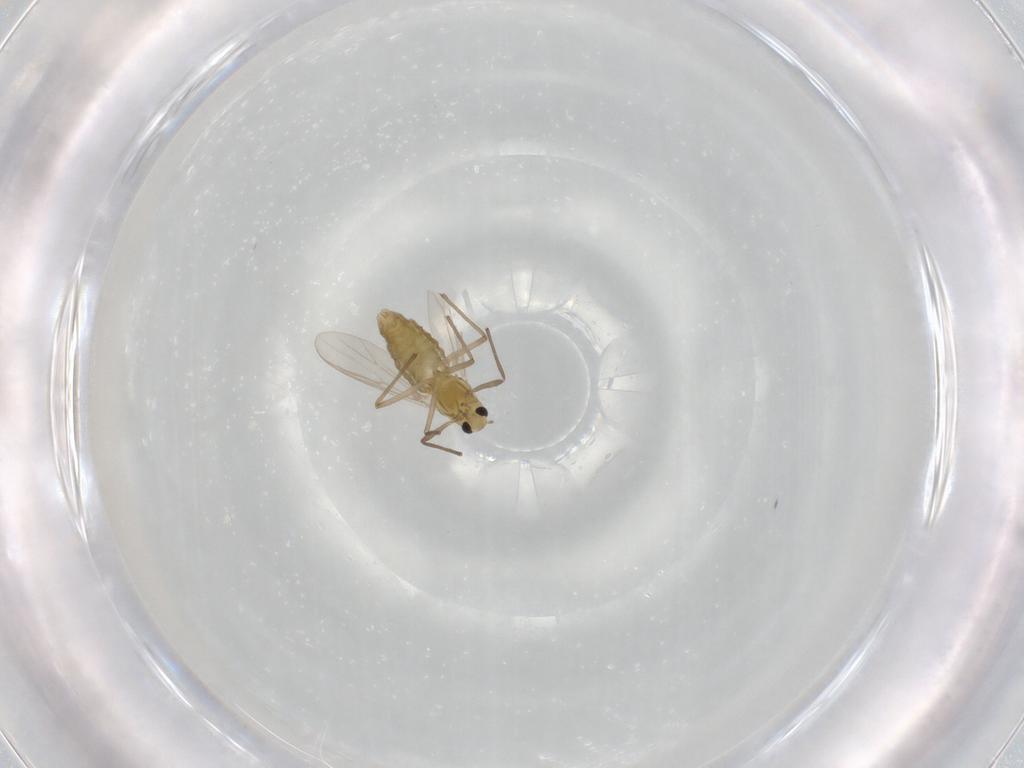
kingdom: Animalia
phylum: Arthropoda
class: Insecta
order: Diptera
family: Chironomidae
